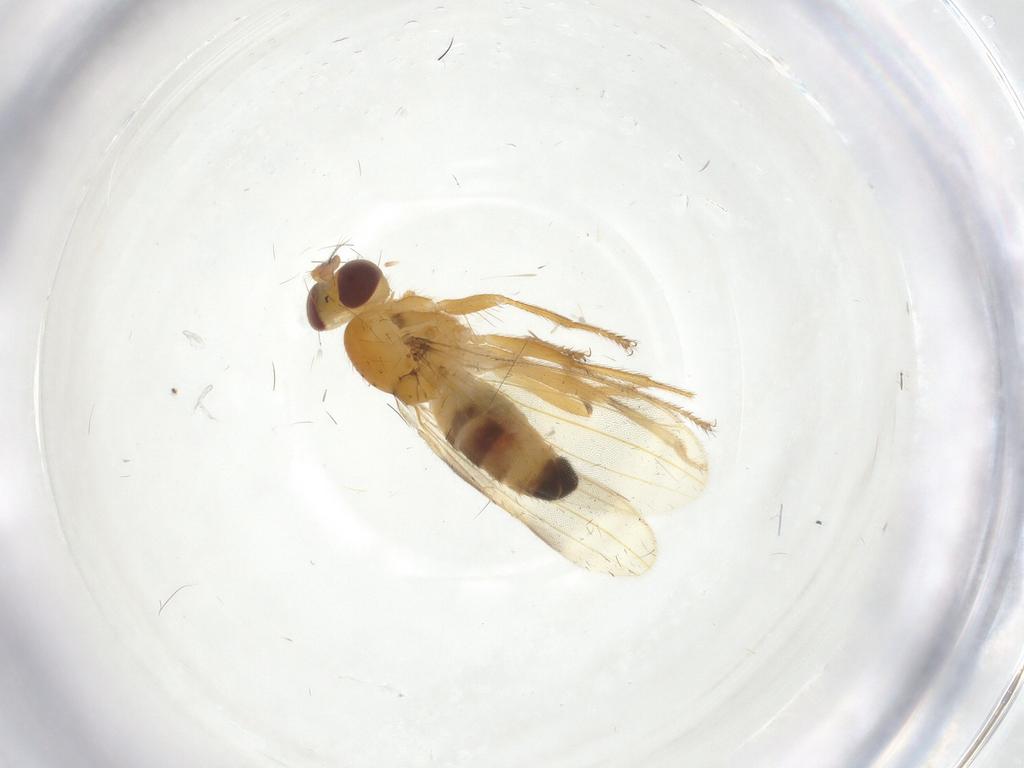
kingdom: Animalia
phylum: Arthropoda
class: Insecta
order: Diptera
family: Periscelididae
